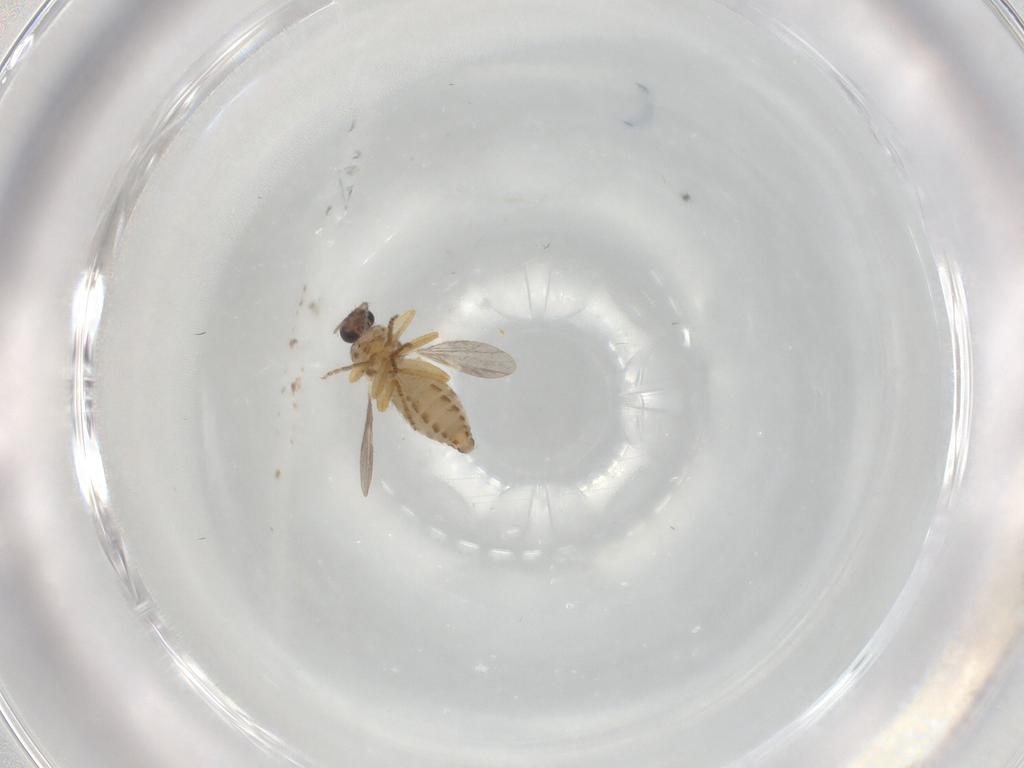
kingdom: Animalia
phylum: Arthropoda
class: Insecta
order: Diptera
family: Ceratopogonidae
